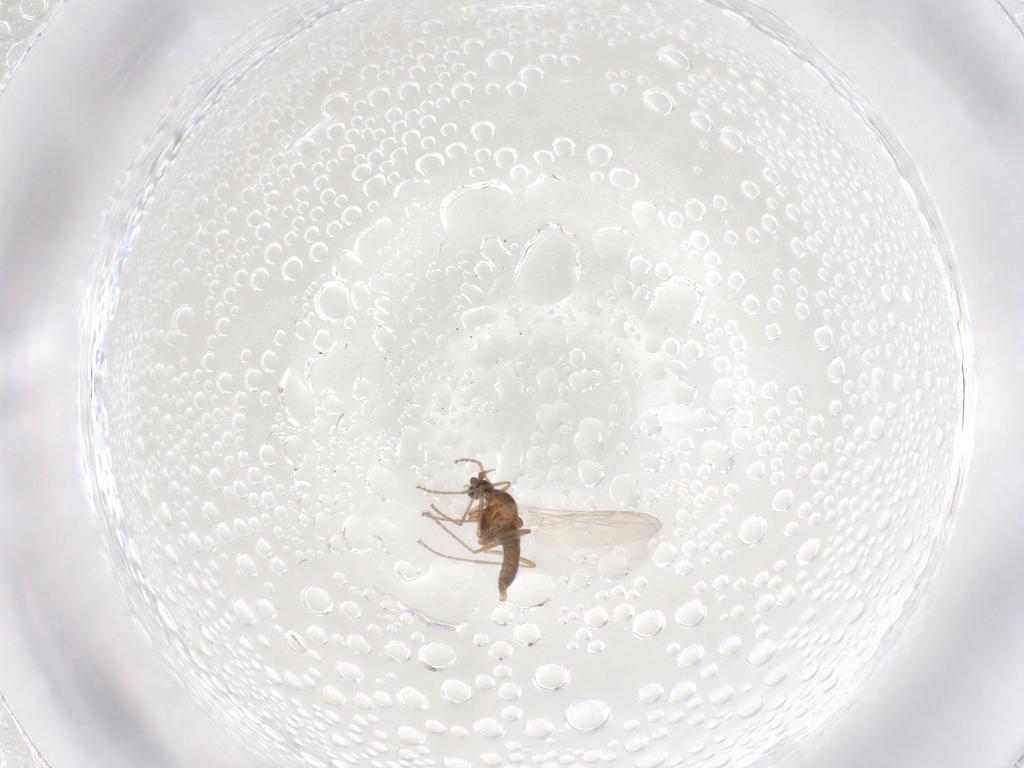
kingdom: Animalia
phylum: Arthropoda
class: Insecta
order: Diptera
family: Cecidomyiidae
